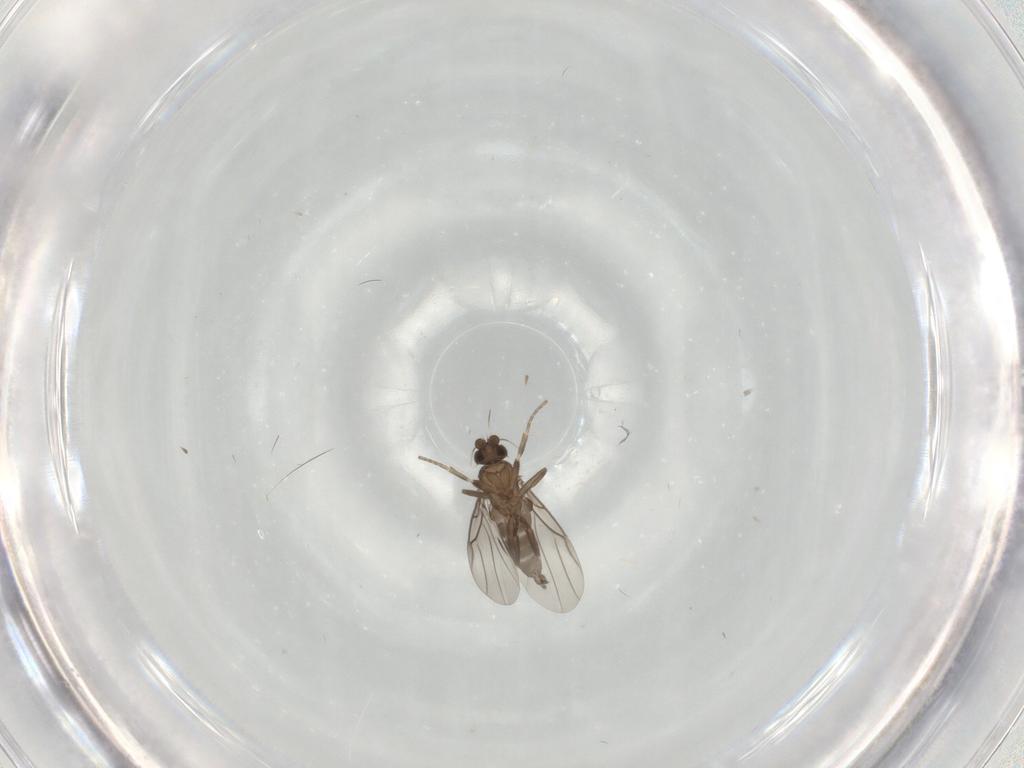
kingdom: Animalia
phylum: Arthropoda
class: Insecta
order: Diptera
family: Phoridae
